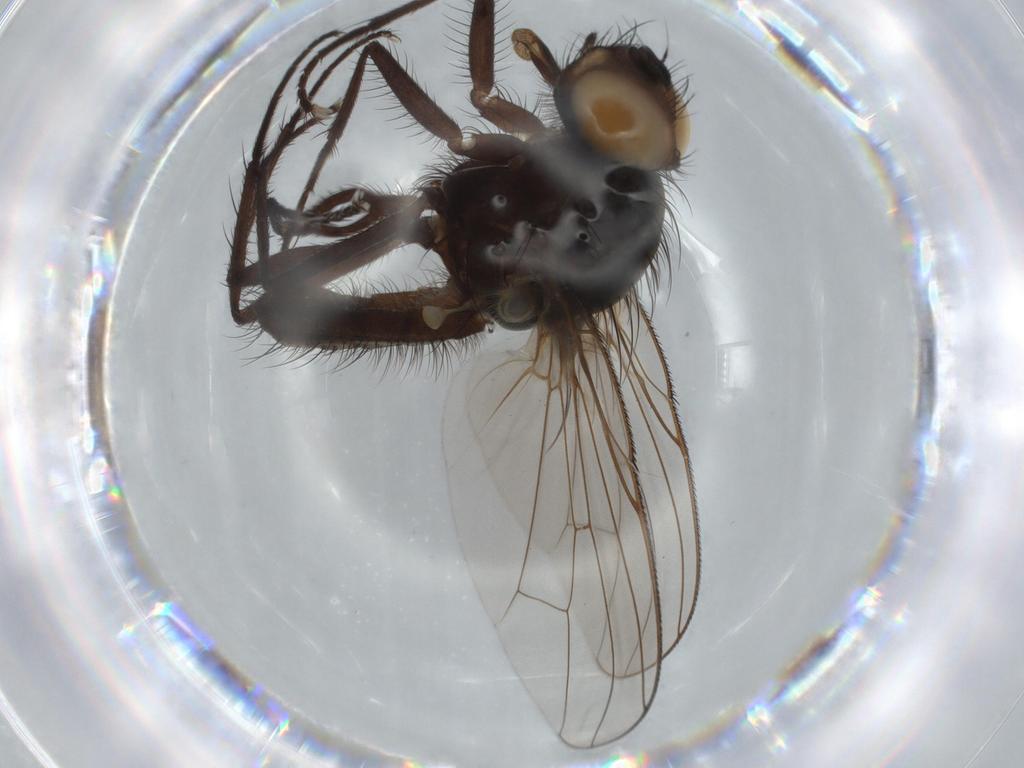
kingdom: Animalia
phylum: Arthropoda
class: Insecta
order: Diptera
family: Anthomyiidae
